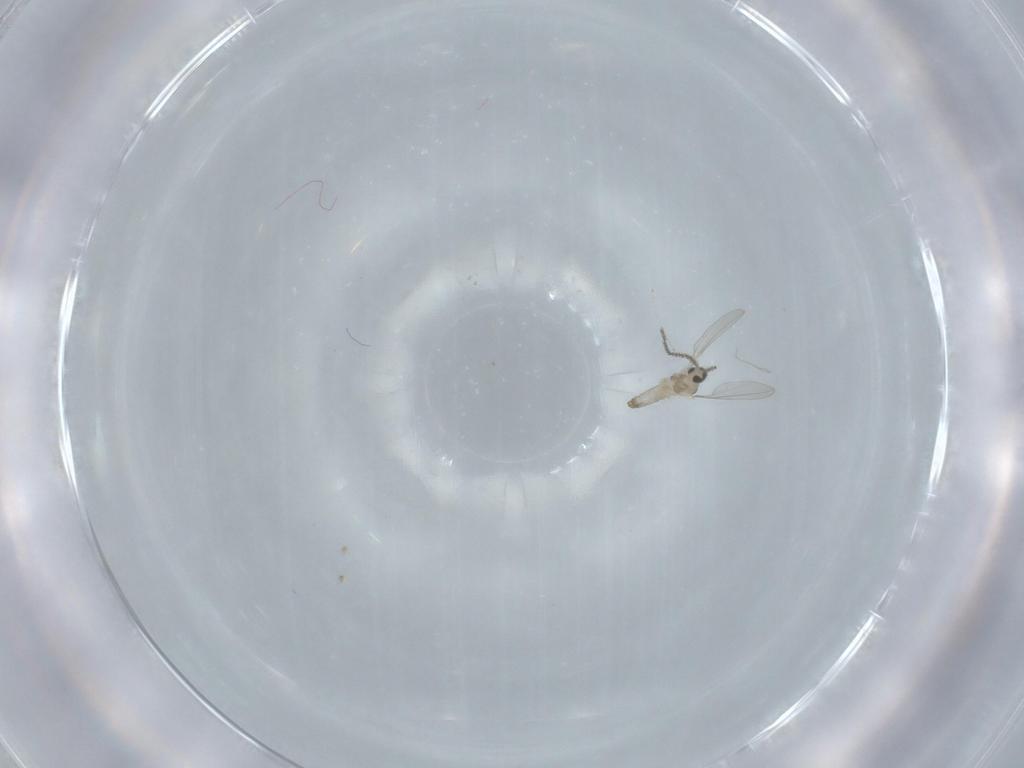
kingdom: Animalia
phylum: Arthropoda
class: Insecta
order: Diptera
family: Cecidomyiidae
